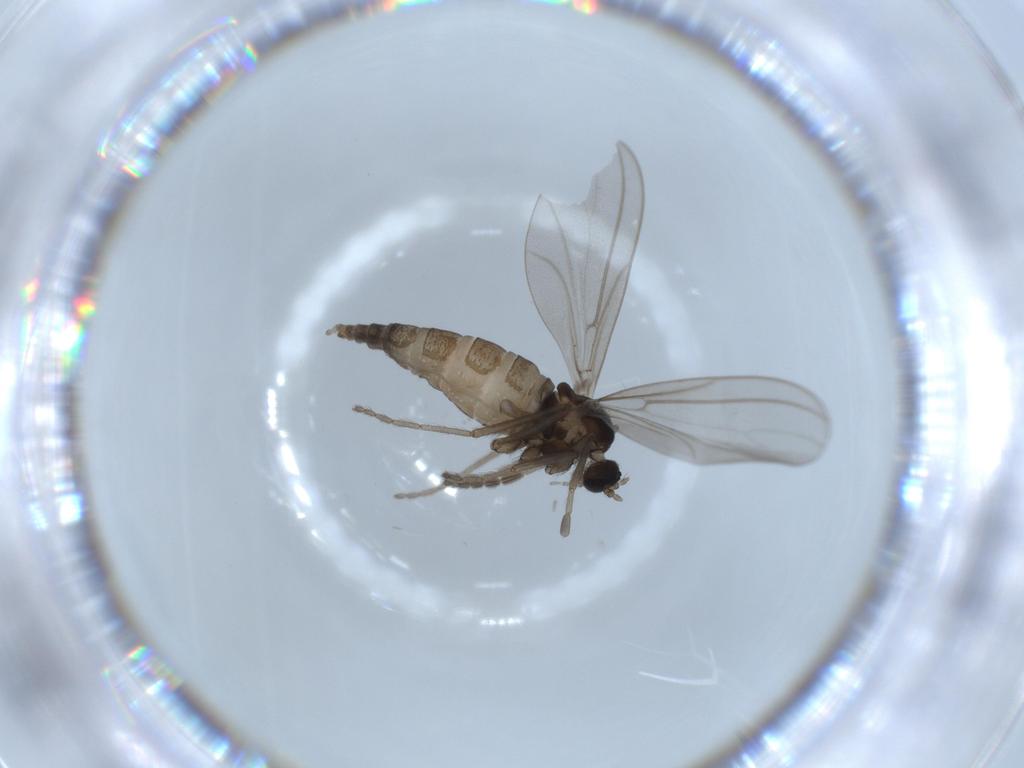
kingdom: Animalia
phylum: Arthropoda
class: Insecta
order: Diptera
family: Cecidomyiidae
